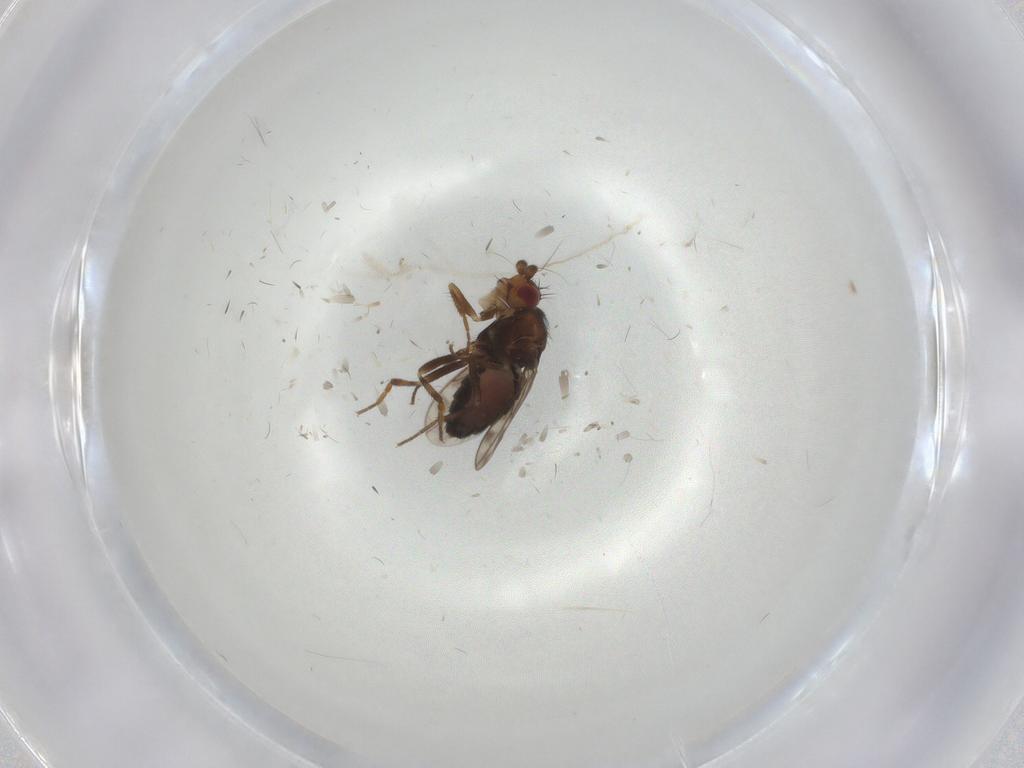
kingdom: Animalia
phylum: Arthropoda
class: Insecta
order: Diptera
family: Sphaeroceridae
